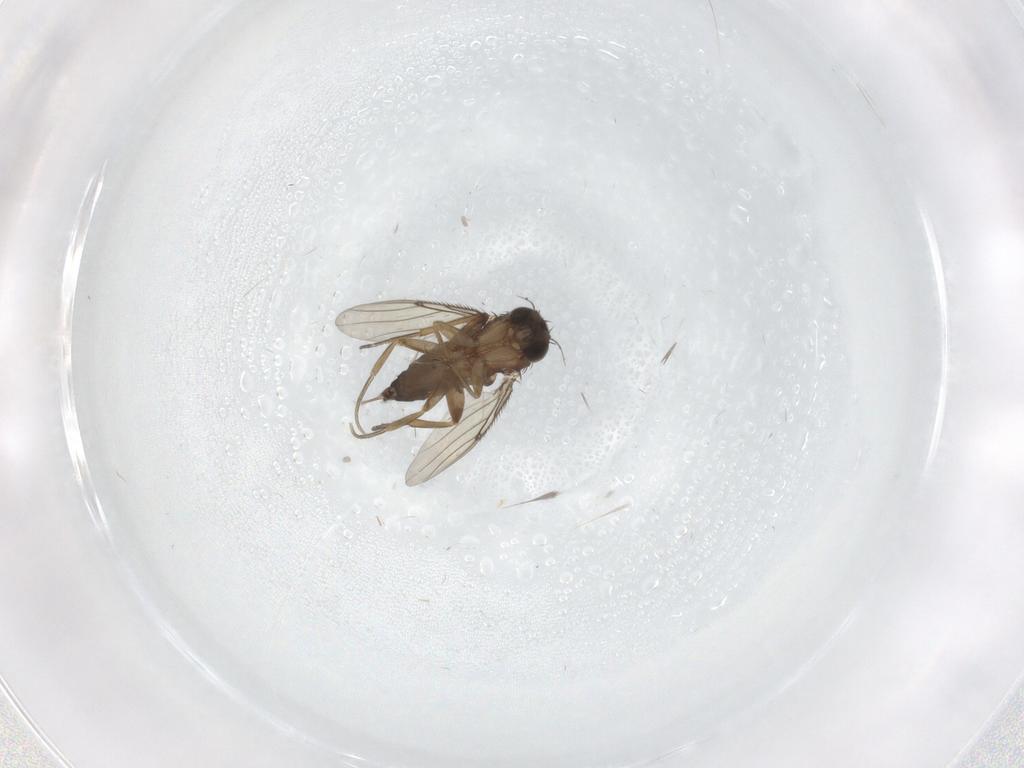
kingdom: Animalia
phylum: Arthropoda
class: Insecta
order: Diptera
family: Phoridae
